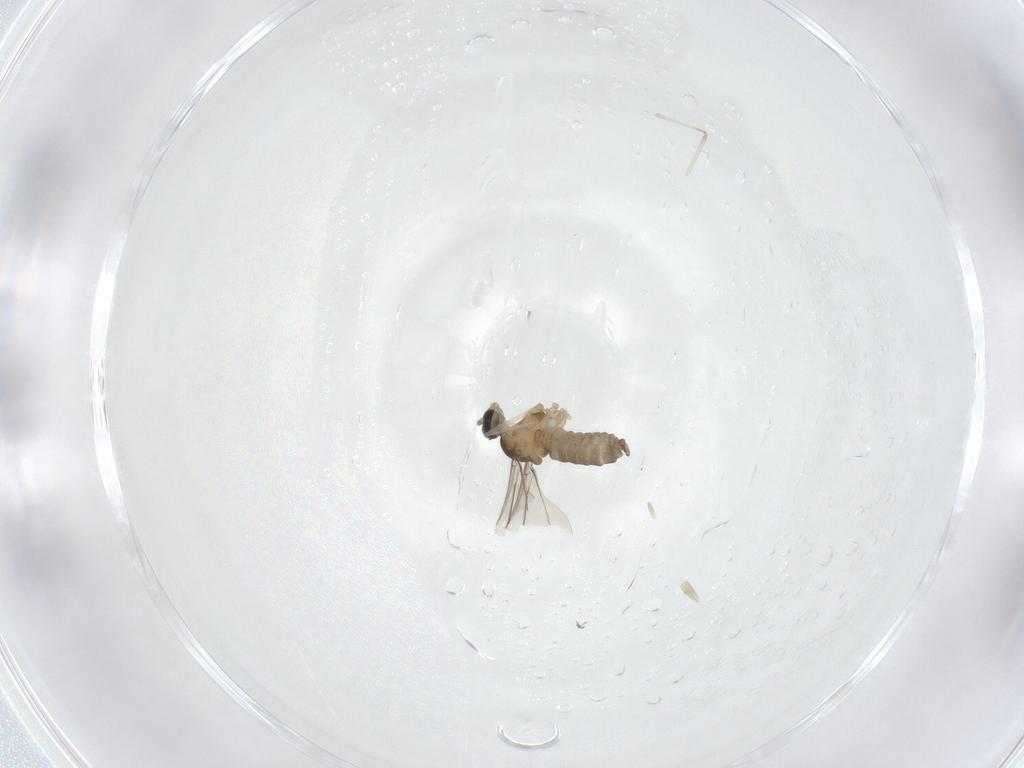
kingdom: Animalia
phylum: Arthropoda
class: Insecta
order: Diptera
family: Cecidomyiidae
